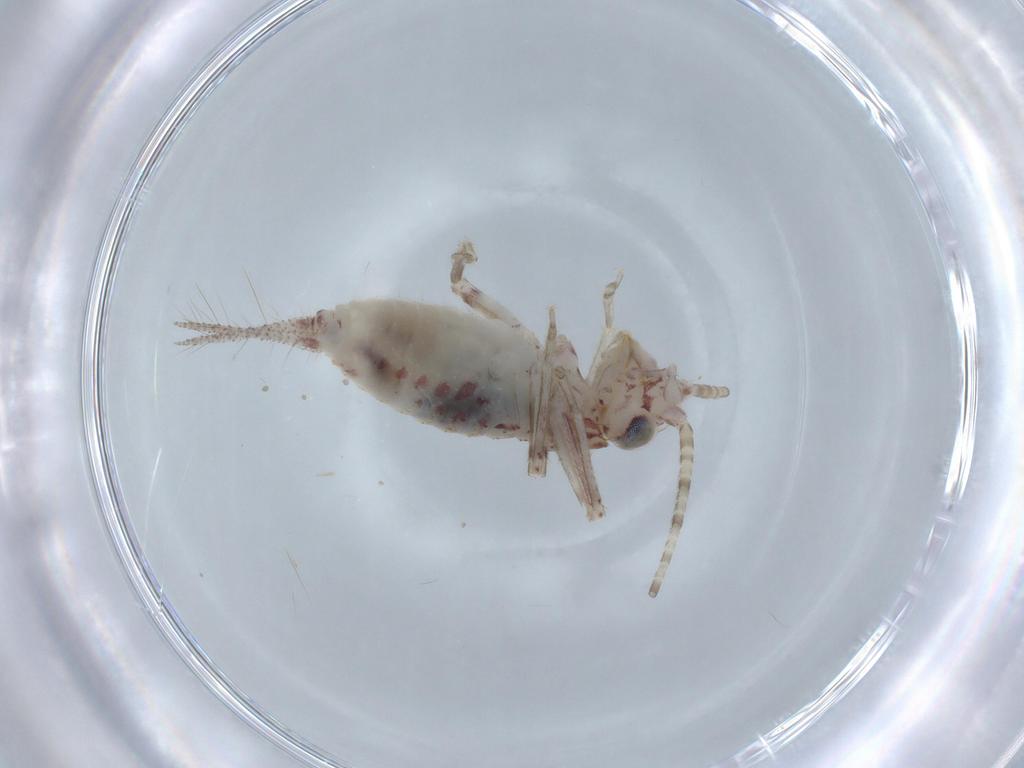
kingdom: Animalia
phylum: Arthropoda
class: Insecta
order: Orthoptera
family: Trigonidiidae
